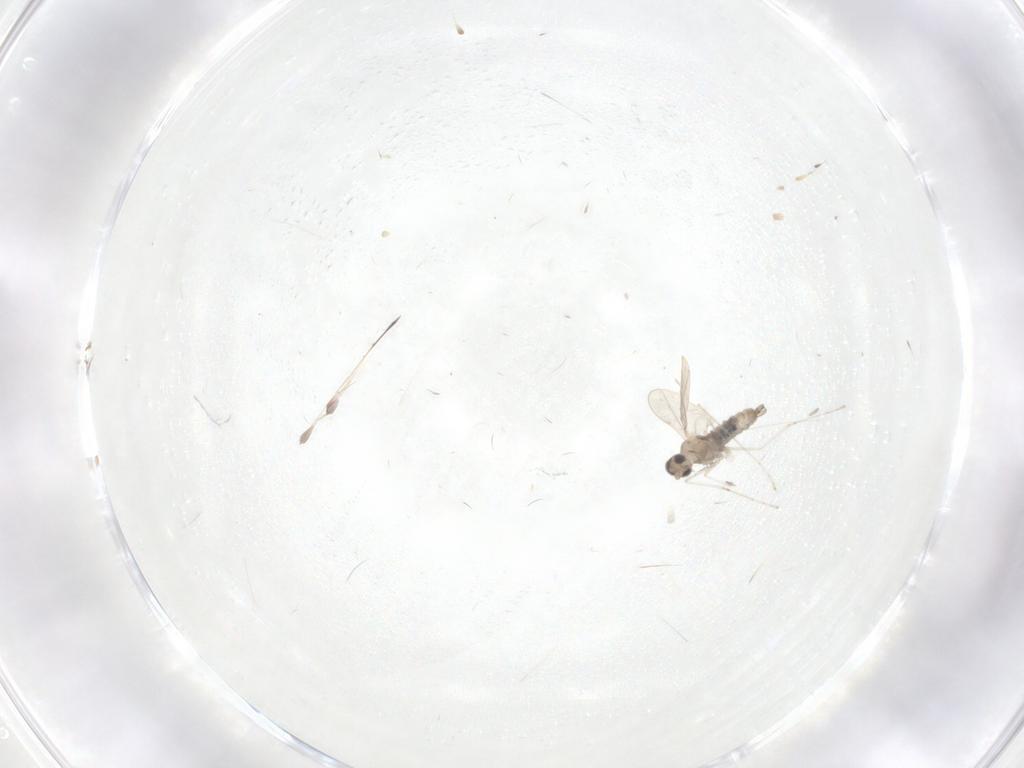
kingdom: Animalia
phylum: Arthropoda
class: Insecta
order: Diptera
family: Cecidomyiidae
